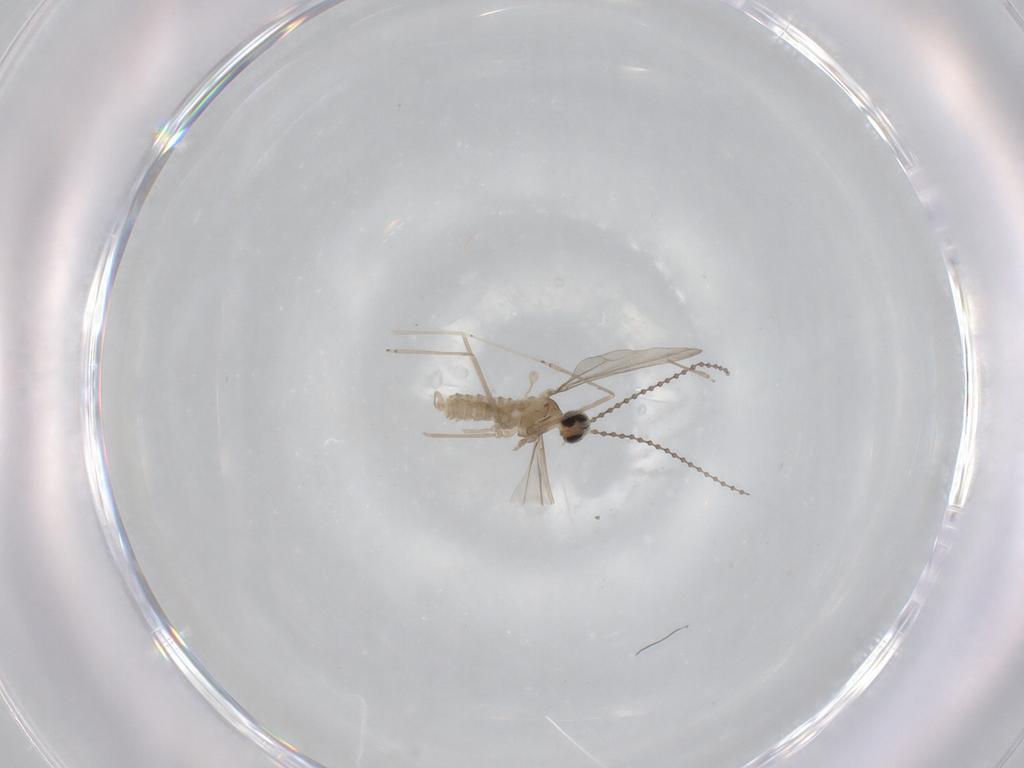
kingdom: Animalia
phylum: Arthropoda
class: Insecta
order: Diptera
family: Cecidomyiidae
